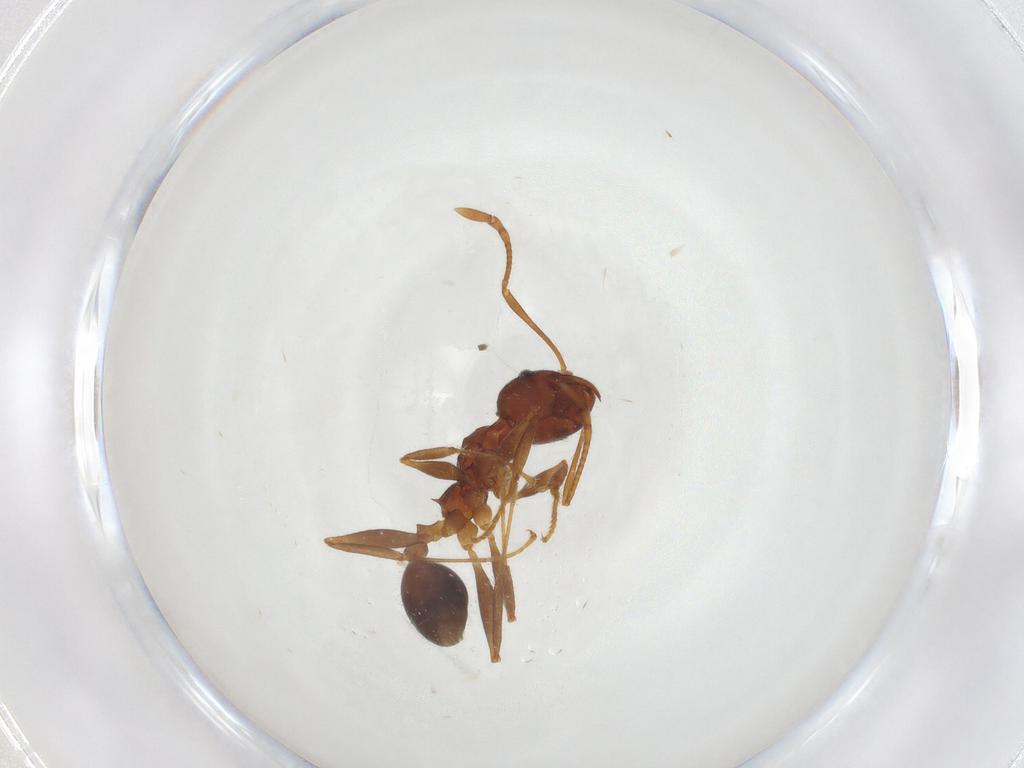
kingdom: Animalia
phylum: Arthropoda
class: Insecta
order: Hymenoptera
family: Formicidae
